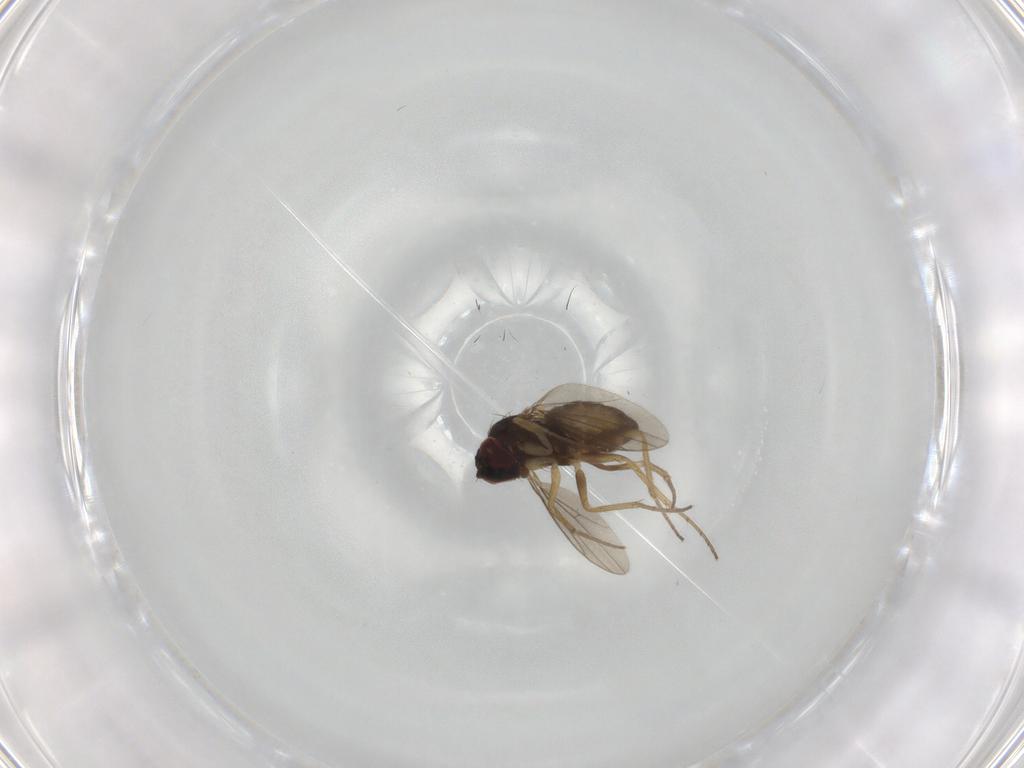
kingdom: Animalia
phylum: Arthropoda
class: Insecta
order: Diptera
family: Dolichopodidae
